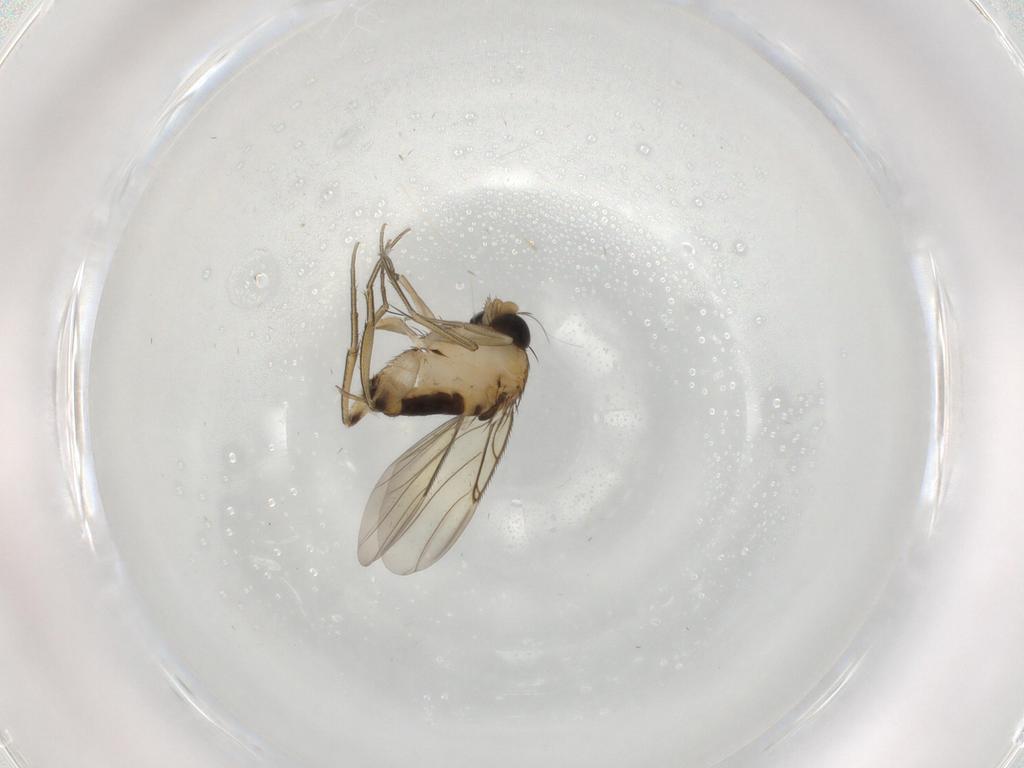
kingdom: Animalia
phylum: Arthropoda
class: Insecta
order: Diptera
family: Phoridae
